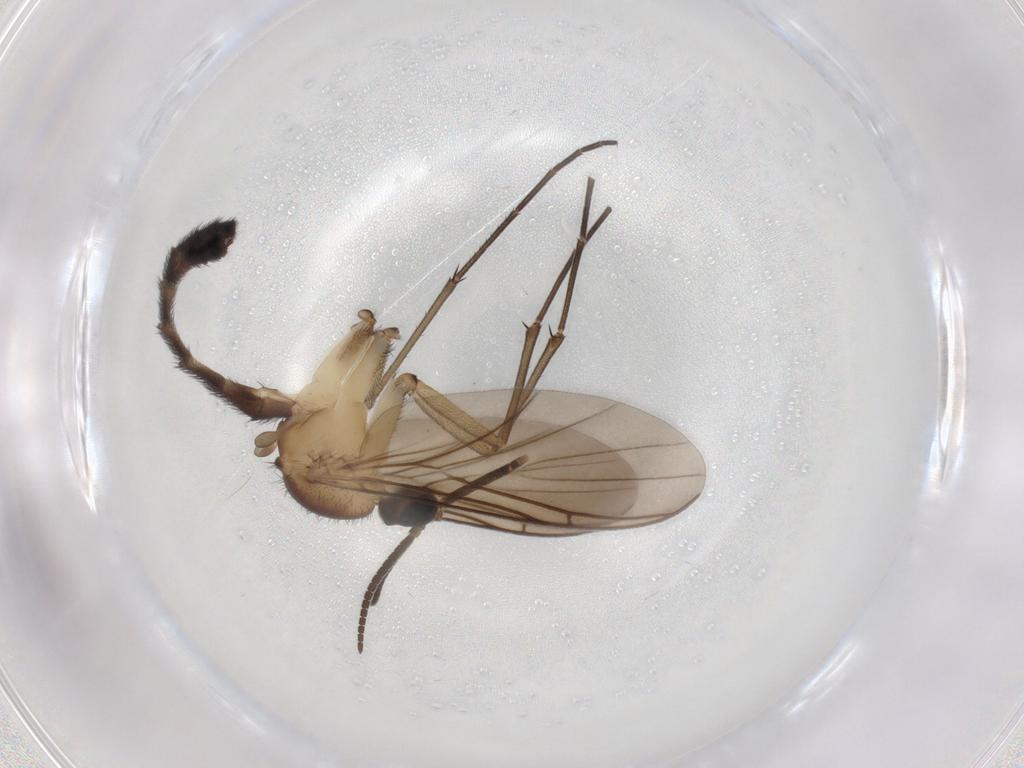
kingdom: Animalia
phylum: Arthropoda
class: Insecta
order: Diptera
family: Keroplatidae
